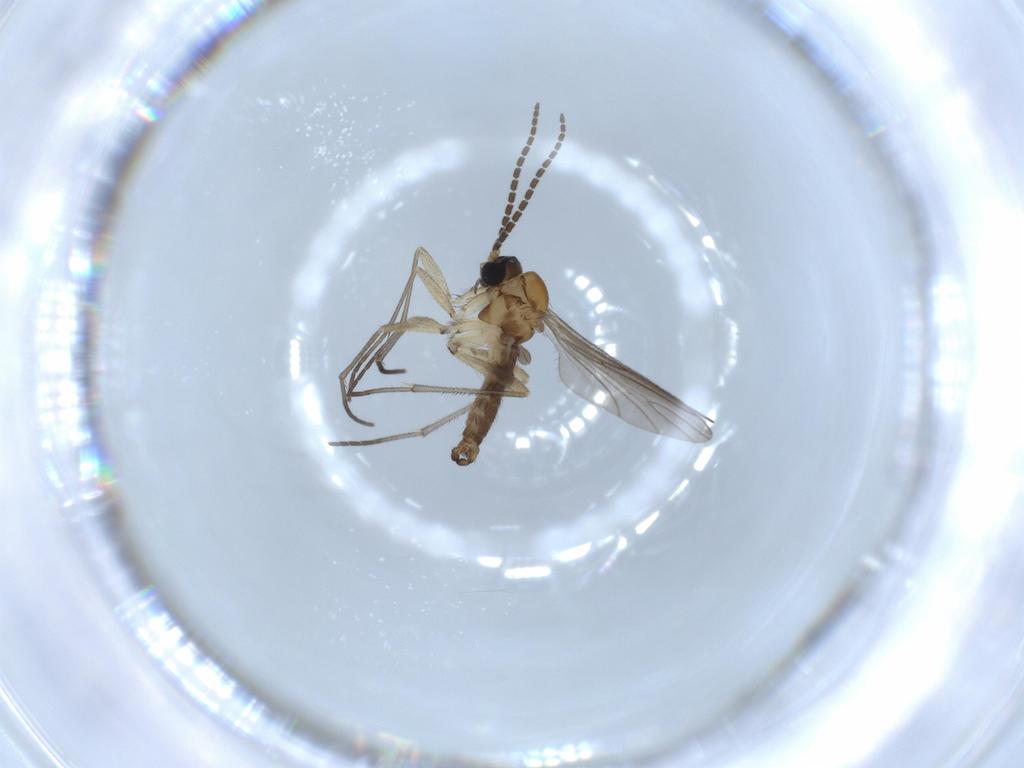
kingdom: Animalia
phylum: Arthropoda
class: Insecta
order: Diptera
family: Sciaridae
